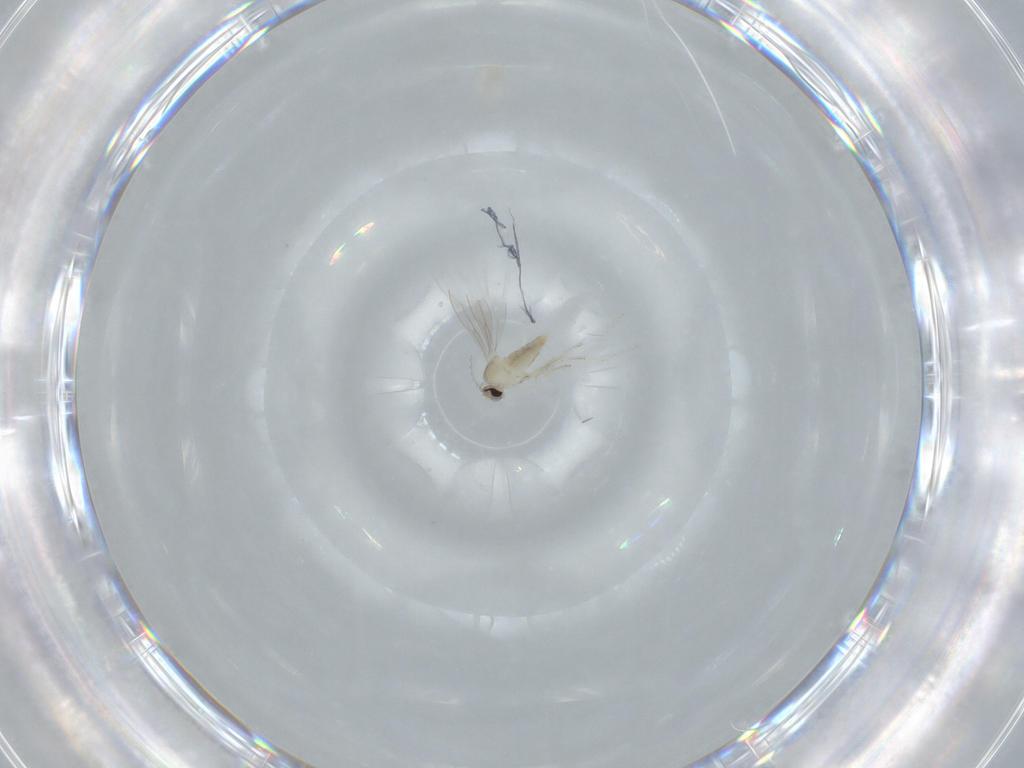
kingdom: Animalia
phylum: Arthropoda
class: Insecta
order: Diptera
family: Cecidomyiidae
